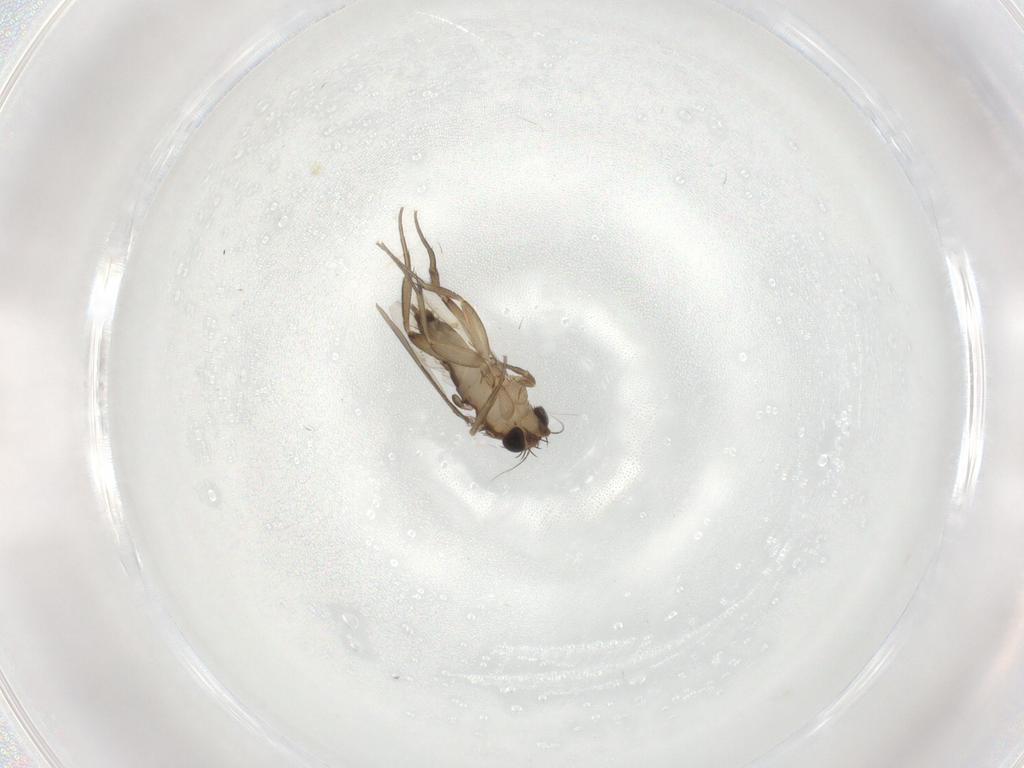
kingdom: Animalia
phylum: Arthropoda
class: Insecta
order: Diptera
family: Phoridae
